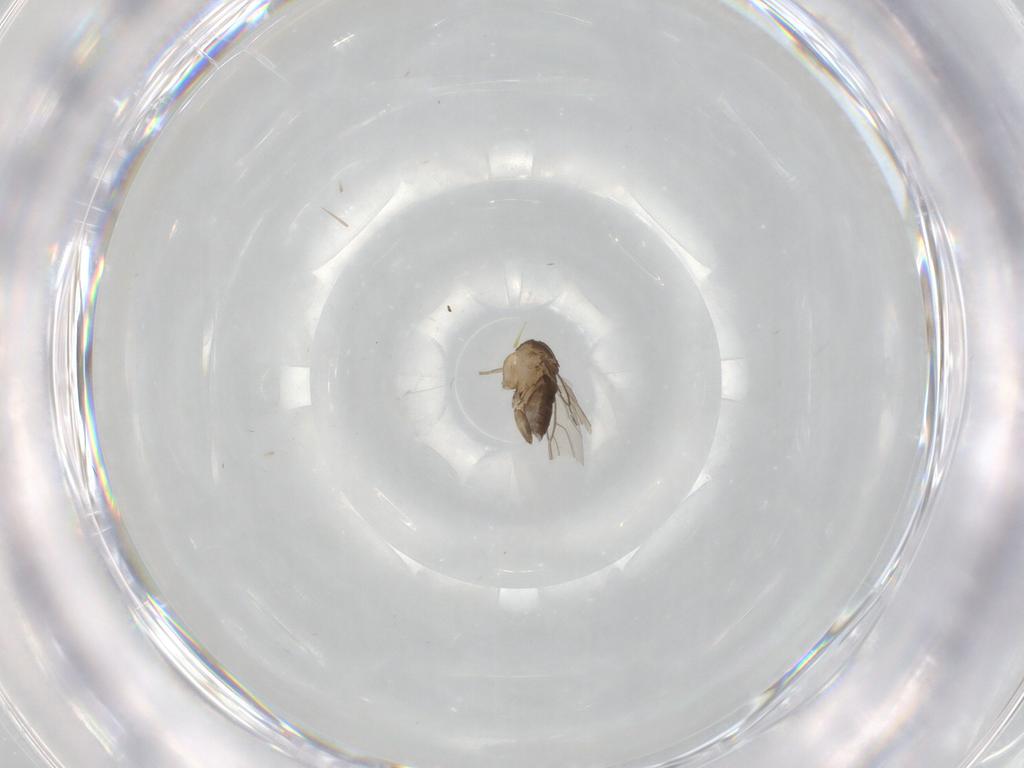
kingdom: Animalia
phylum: Arthropoda
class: Insecta
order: Diptera
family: Phoridae
